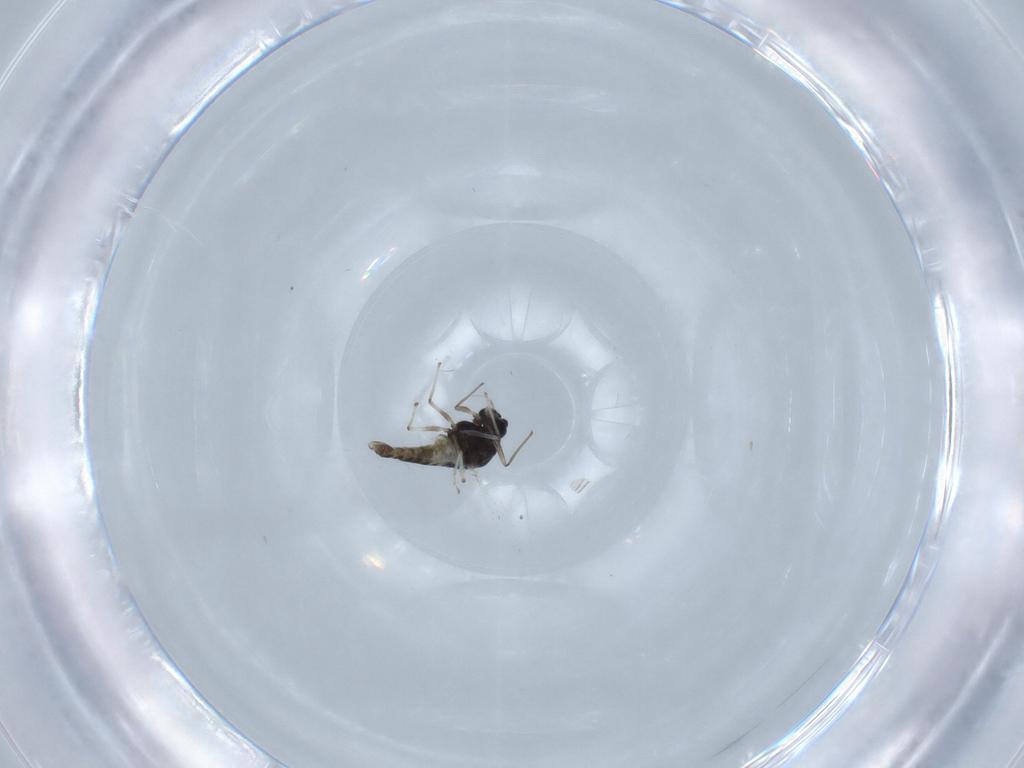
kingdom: Animalia
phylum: Arthropoda
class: Insecta
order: Diptera
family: Chironomidae
